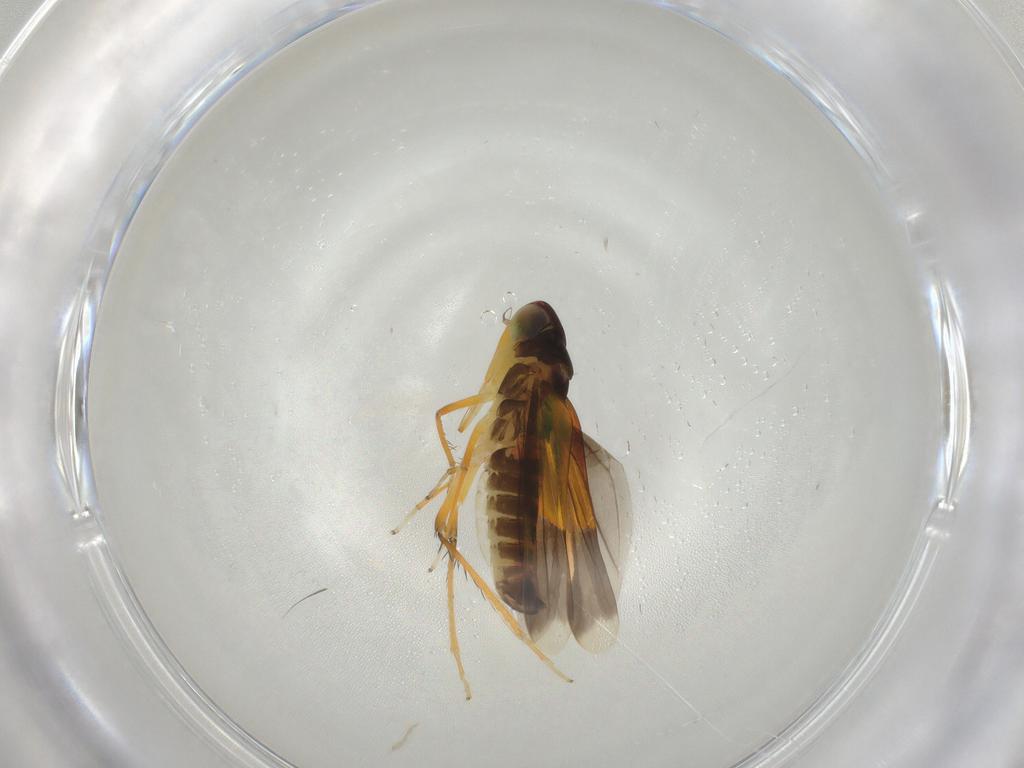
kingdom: Animalia
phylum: Arthropoda
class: Insecta
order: Hemiptera
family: Cicadellidae
